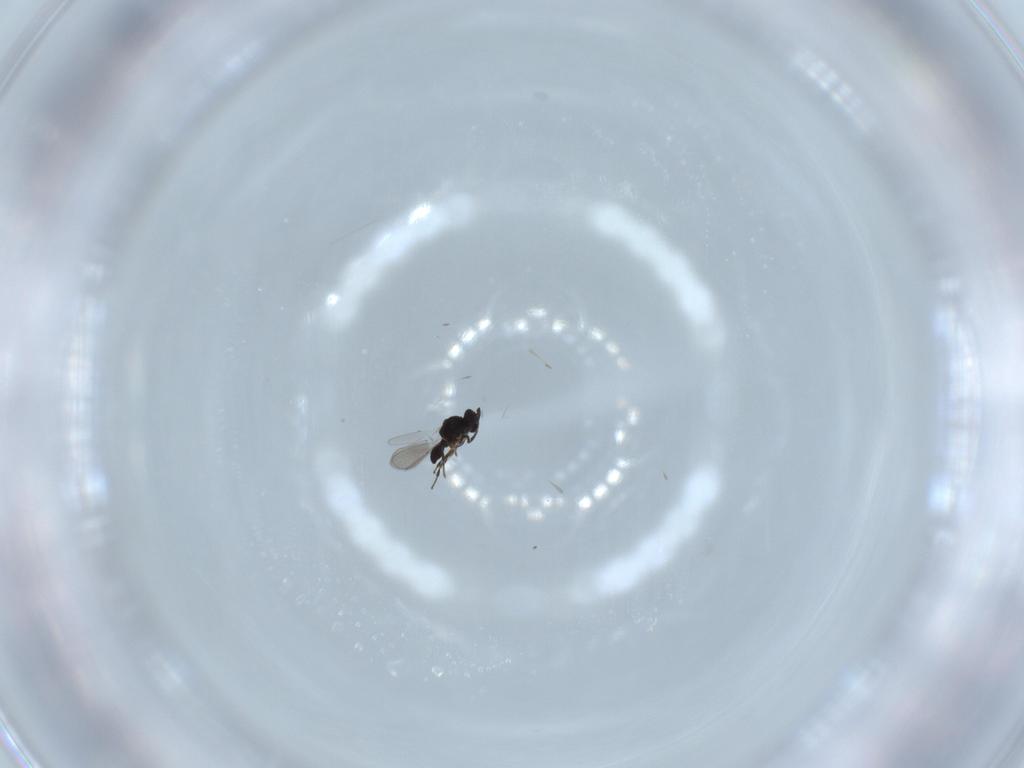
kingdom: Animalia
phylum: Arthropoda
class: Insecta
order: Hymenoptera
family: Platygastridae
